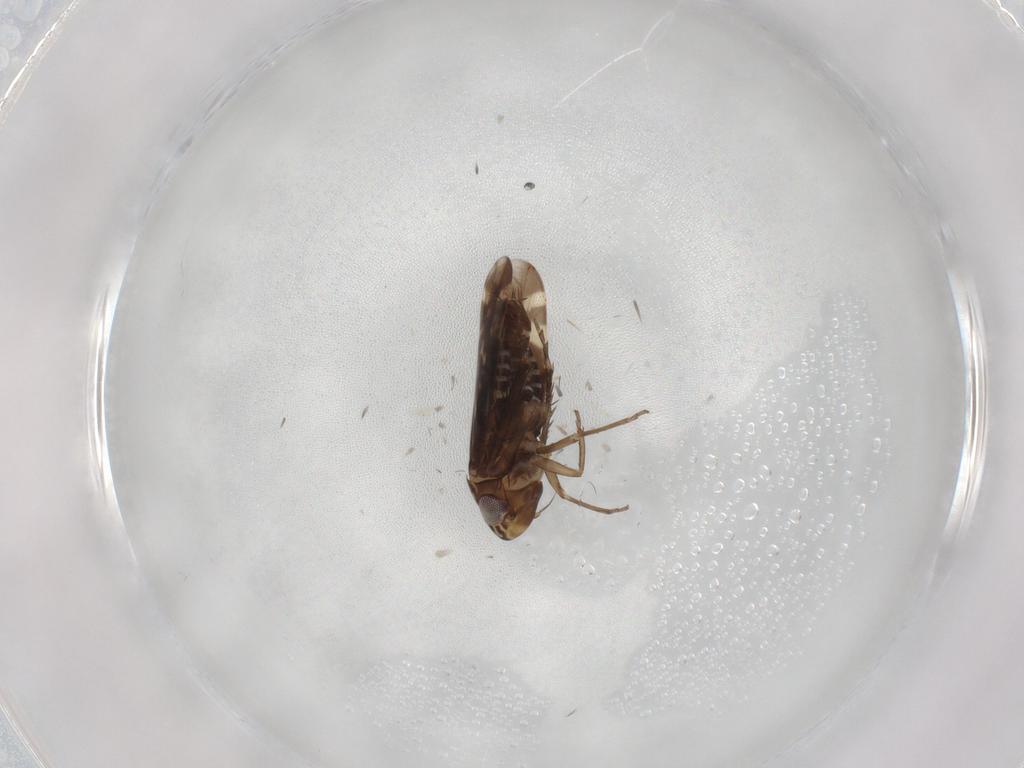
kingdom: Animalia
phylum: Arthropoda
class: Insecta
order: Hemiptera
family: Cicadellidae
